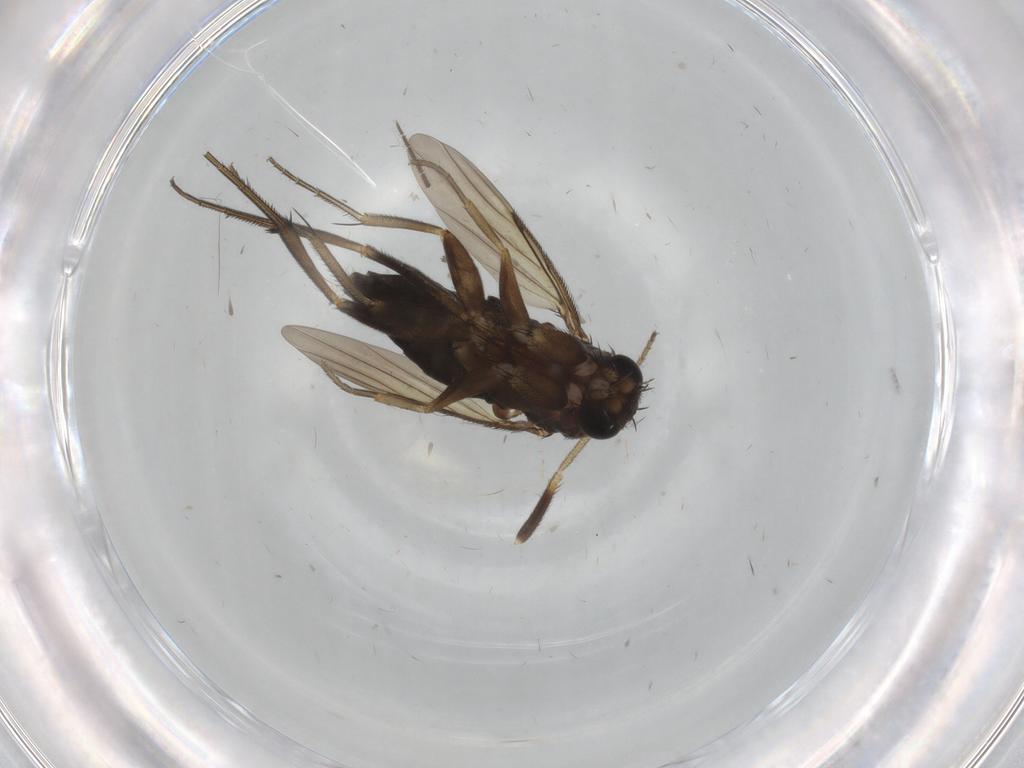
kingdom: Animalia
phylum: Arthropoda
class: Insecta
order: Diptera
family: Phoridae
